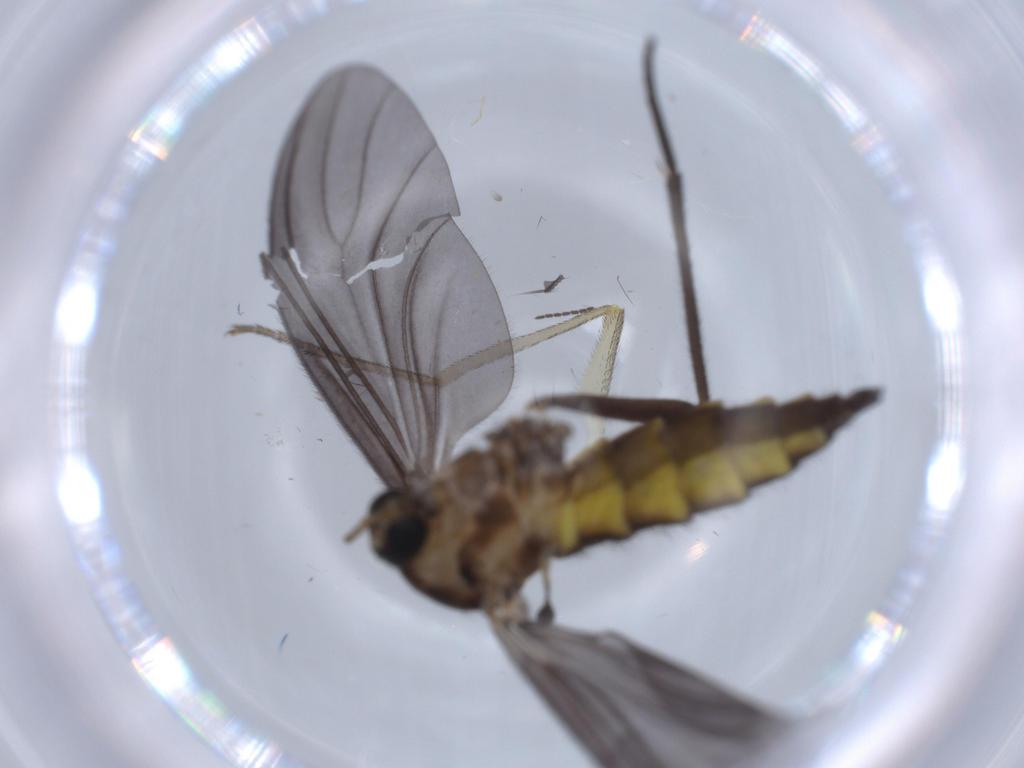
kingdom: Animalia
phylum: Arthropoda
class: Insecta
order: Diptera
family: Sciaridae
